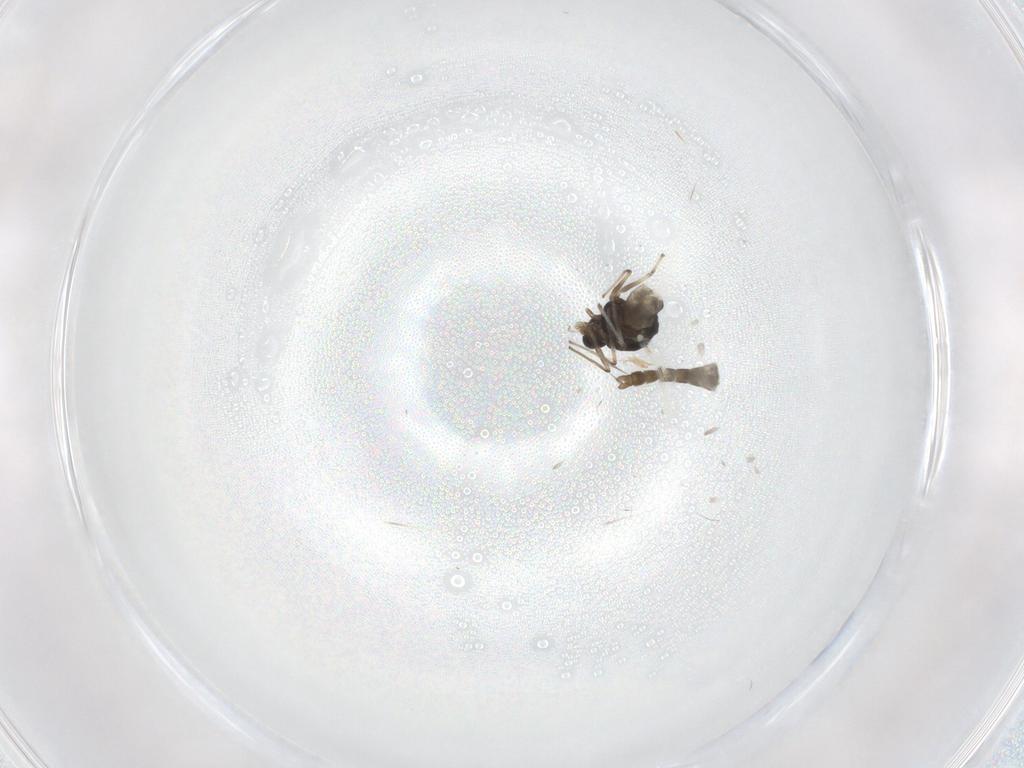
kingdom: Animalia
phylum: Arthropoda
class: Insecta
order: Diptera
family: Chironomidae
